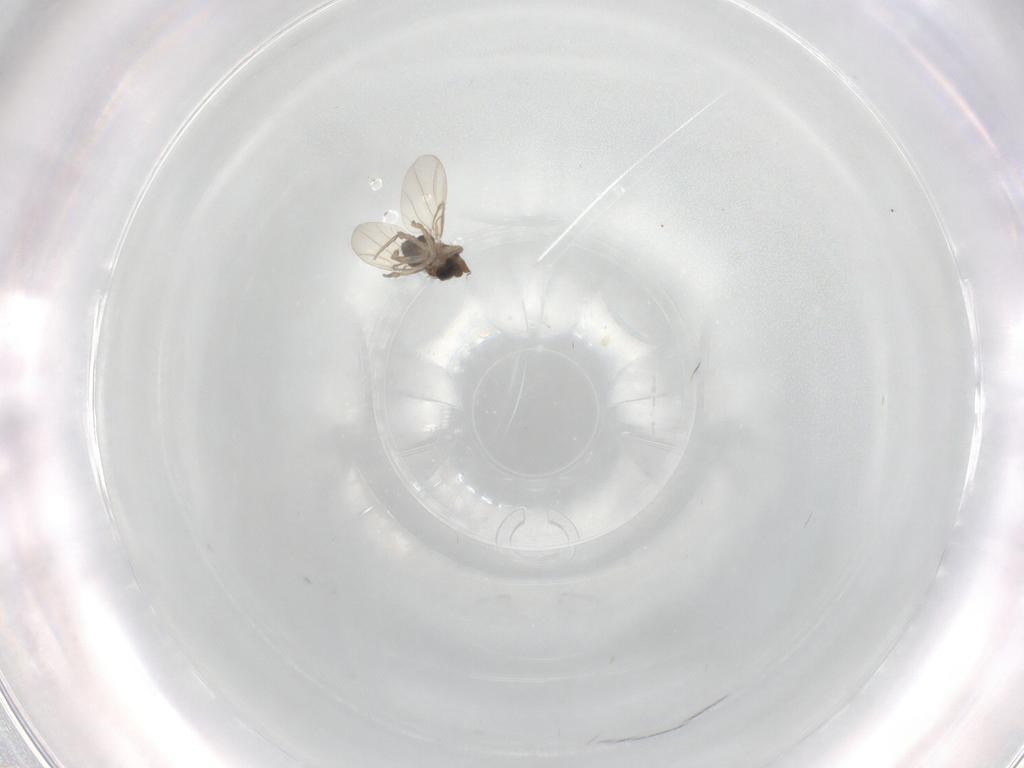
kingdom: Animalia
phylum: Arthropoda
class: Insecta
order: Diptera
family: Phoridae
